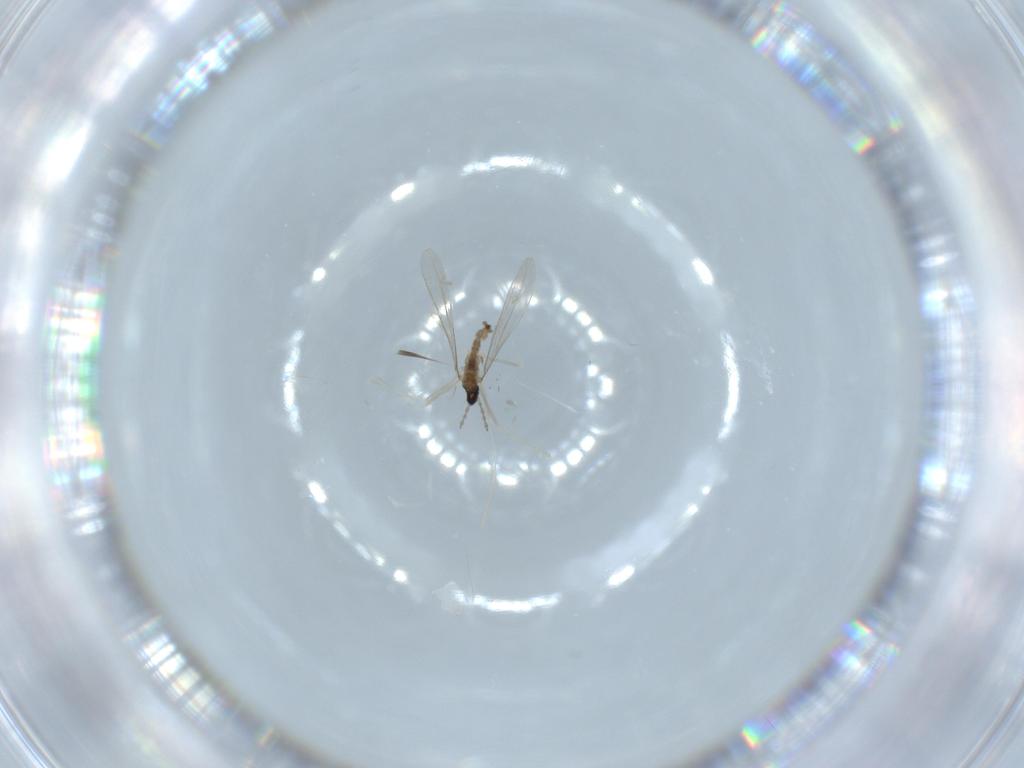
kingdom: Animalia
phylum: Arthropoda
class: Insecta
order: Diptera
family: Cecidomyiidae
